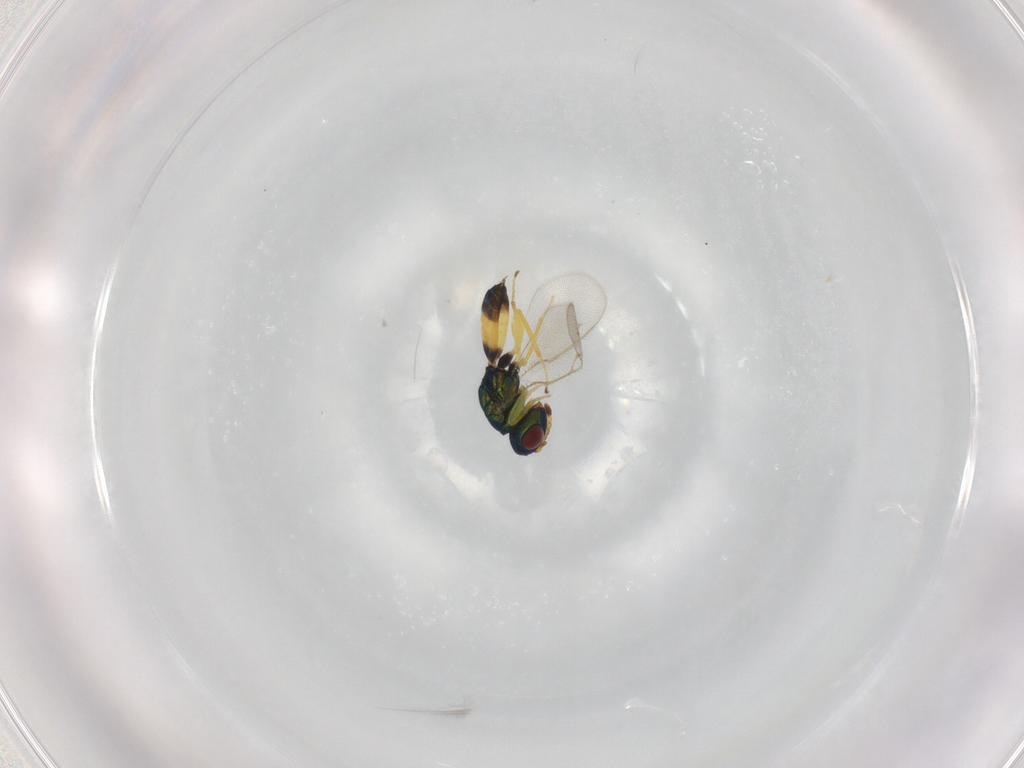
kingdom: Animalia
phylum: Arthropoda
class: Insecta
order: Hymenoptera
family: Pteromalidae
